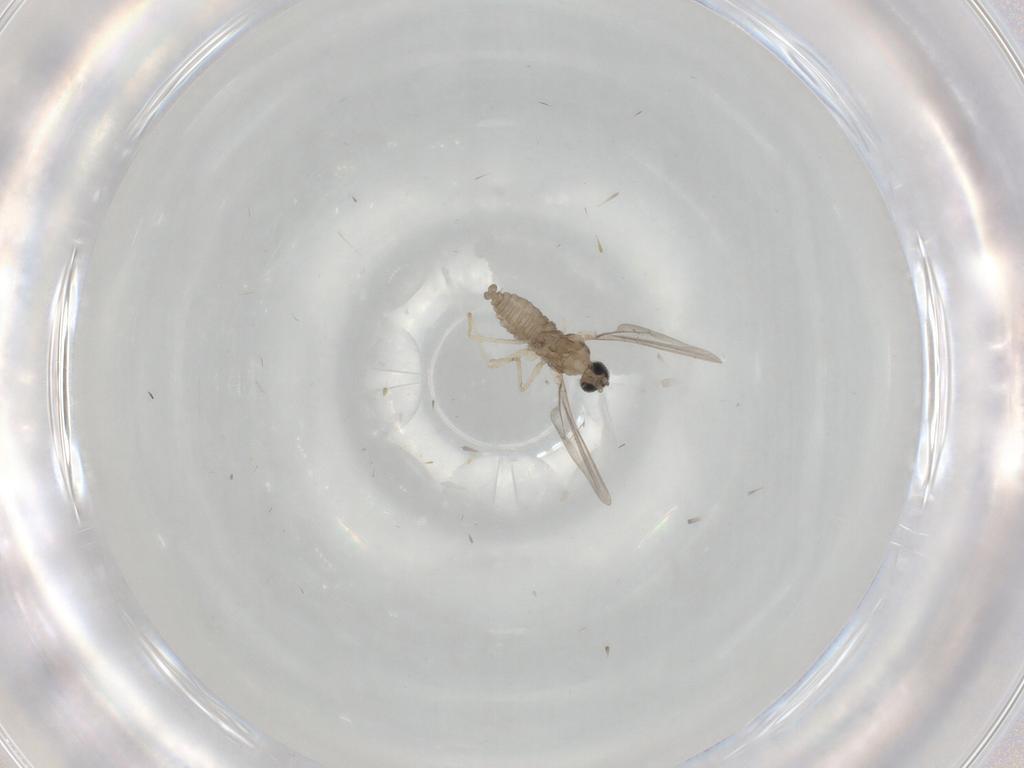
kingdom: Animalia
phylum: Arthropoda
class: Insecta
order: Diptera
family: Cecidomyiidae
